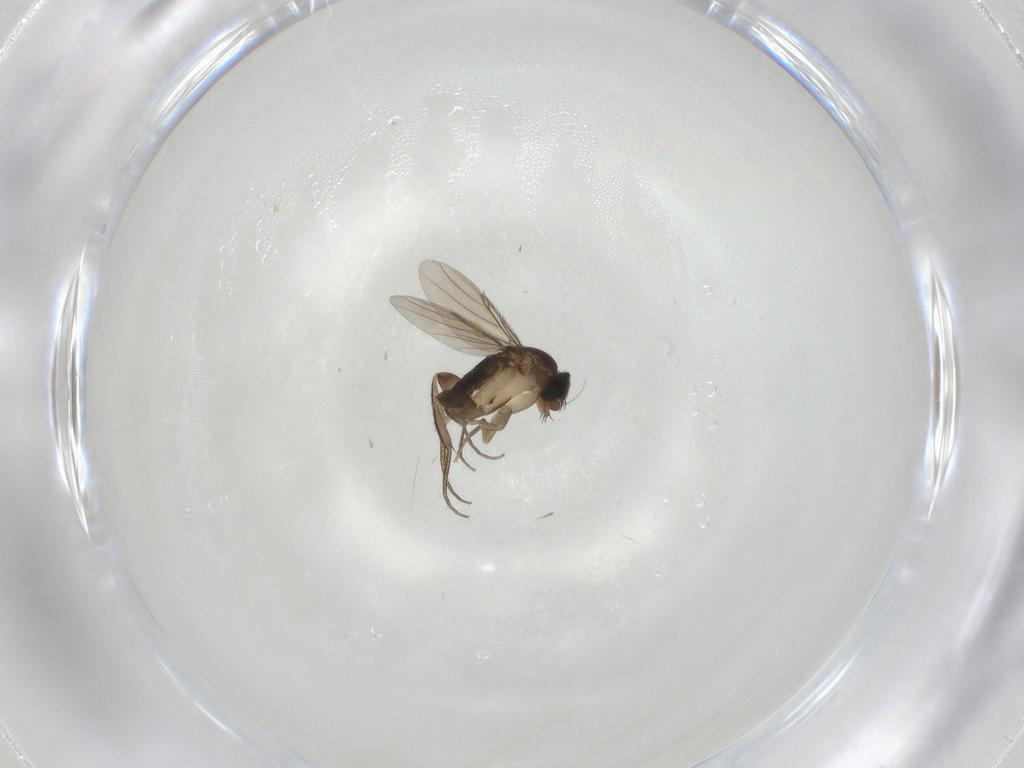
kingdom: Animalia
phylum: Arthropoda
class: Insecta
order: Diptera
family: Phoridae
